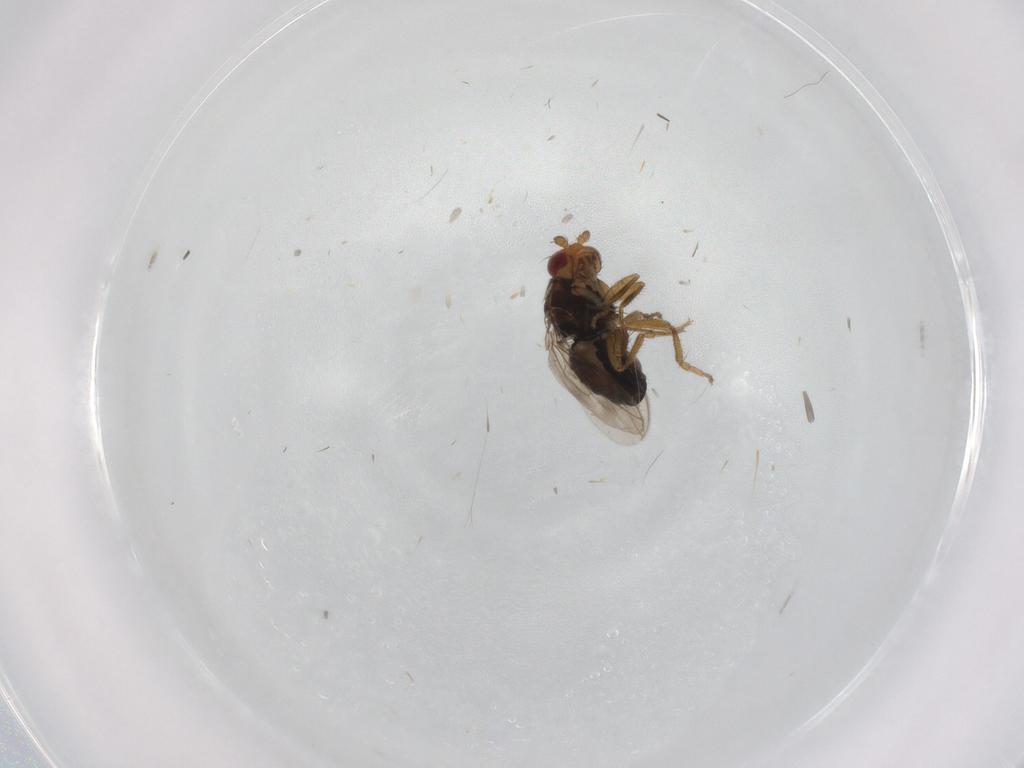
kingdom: Animalia
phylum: Arthropoda
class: Insecta
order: Diptera
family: Sphaeroceridae
